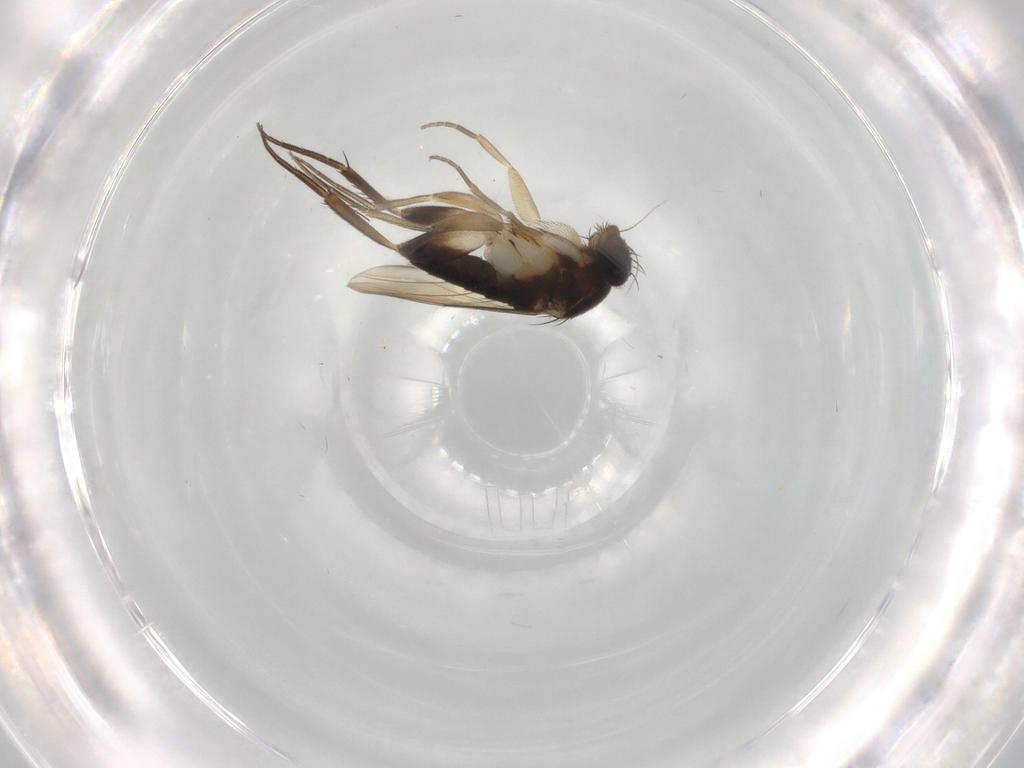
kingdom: Animalia
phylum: Arthropoda
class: Insecta
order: Diptera
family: Phoridae
